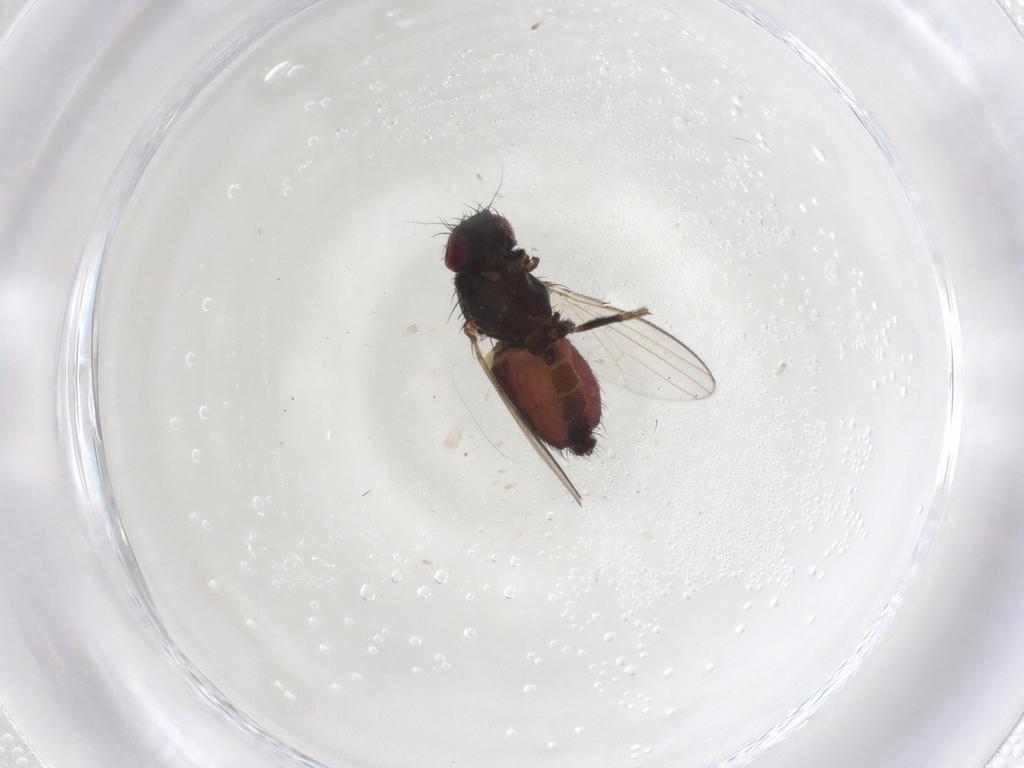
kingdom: Animalia
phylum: Arthropoda
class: Insecta
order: Diptera
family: Milichiidae
